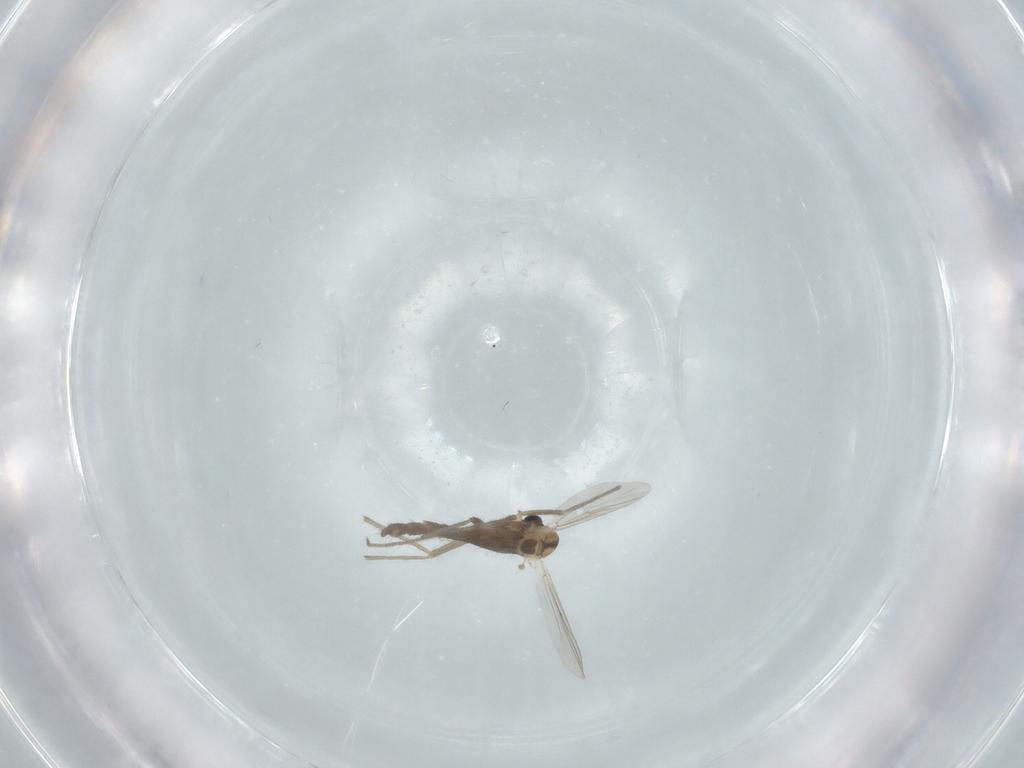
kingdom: Animalia
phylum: Arthropoda
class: Insecta
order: Diptera
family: Chironomidae
